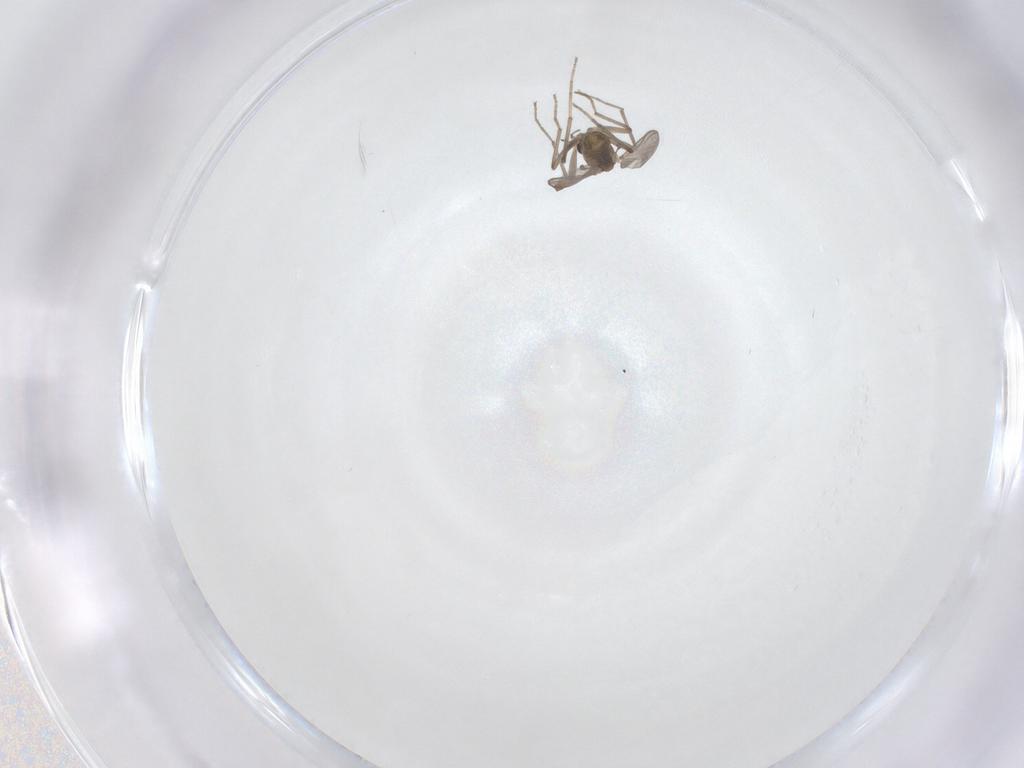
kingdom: Animalia
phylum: Arthropoda
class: Insecta
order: Diptera
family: Chironomidae
